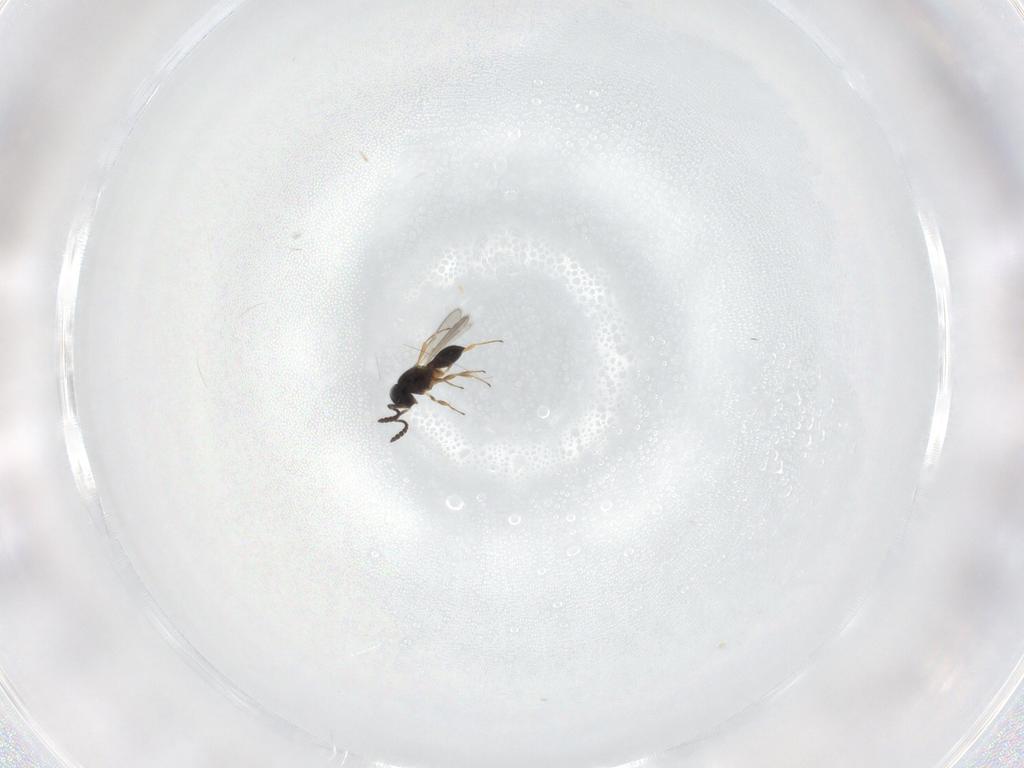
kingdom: Animalia
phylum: Arthropoda
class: Insecta
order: Hymenoptera
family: Scelionidae
